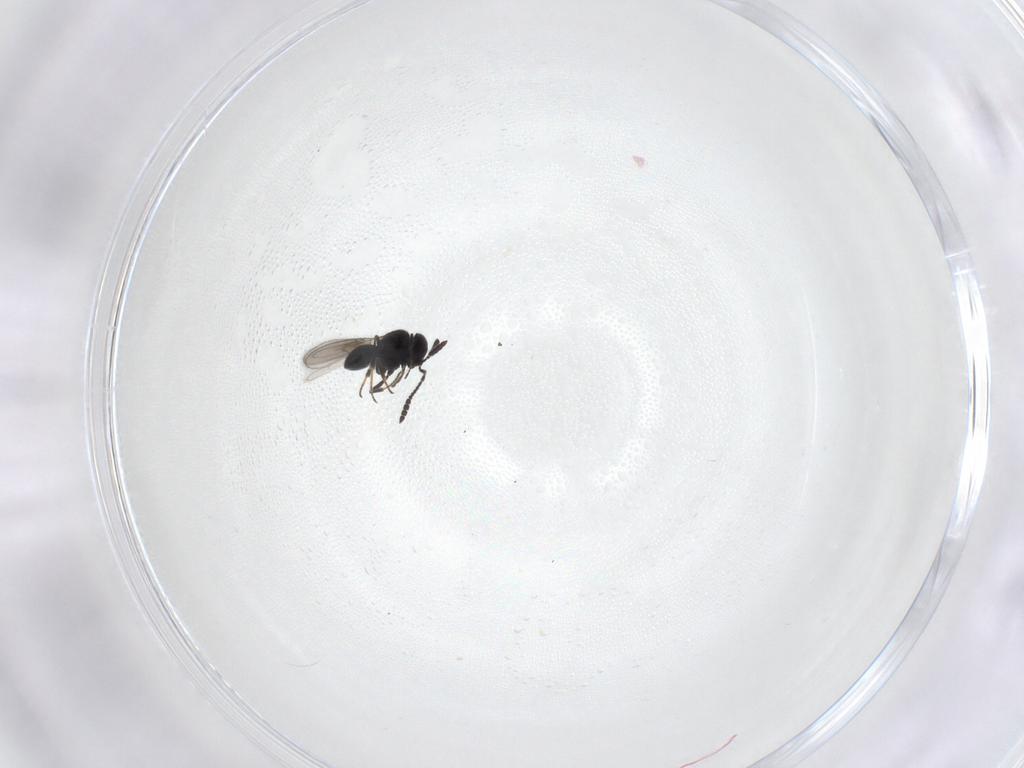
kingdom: Animalia
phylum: Arthropoda
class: Insecta
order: Hymenoptera
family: Scelionidae
